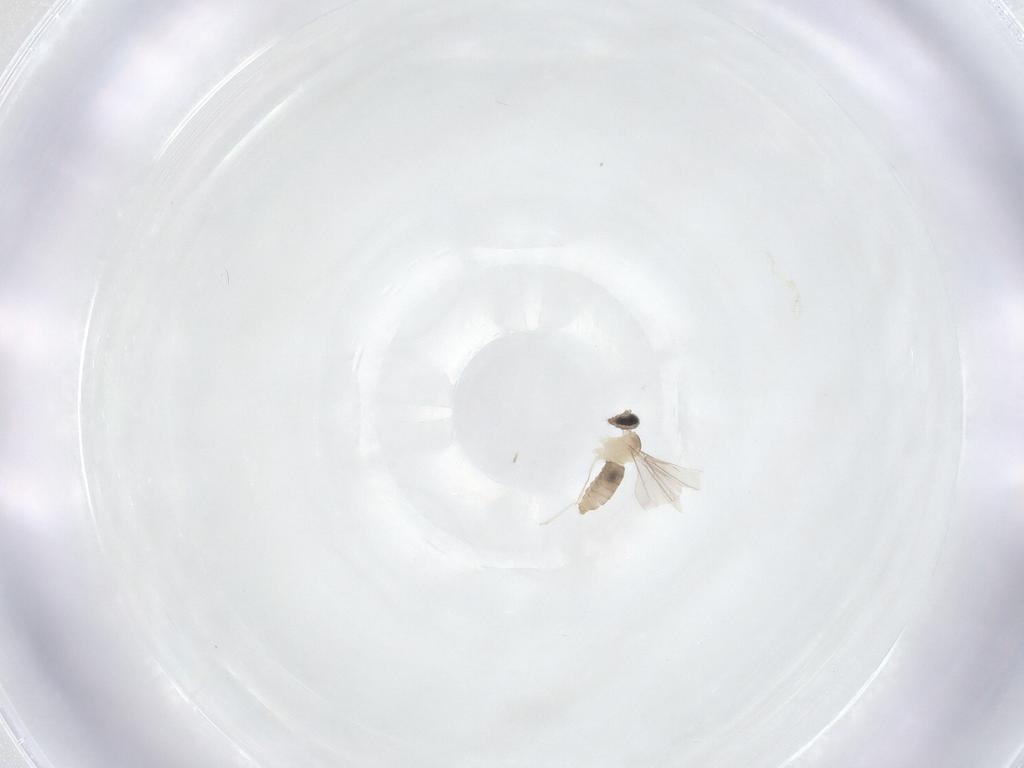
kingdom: Animalia
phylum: Arthropoda
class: Insecta
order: Diptera
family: Cecidomyiidae
